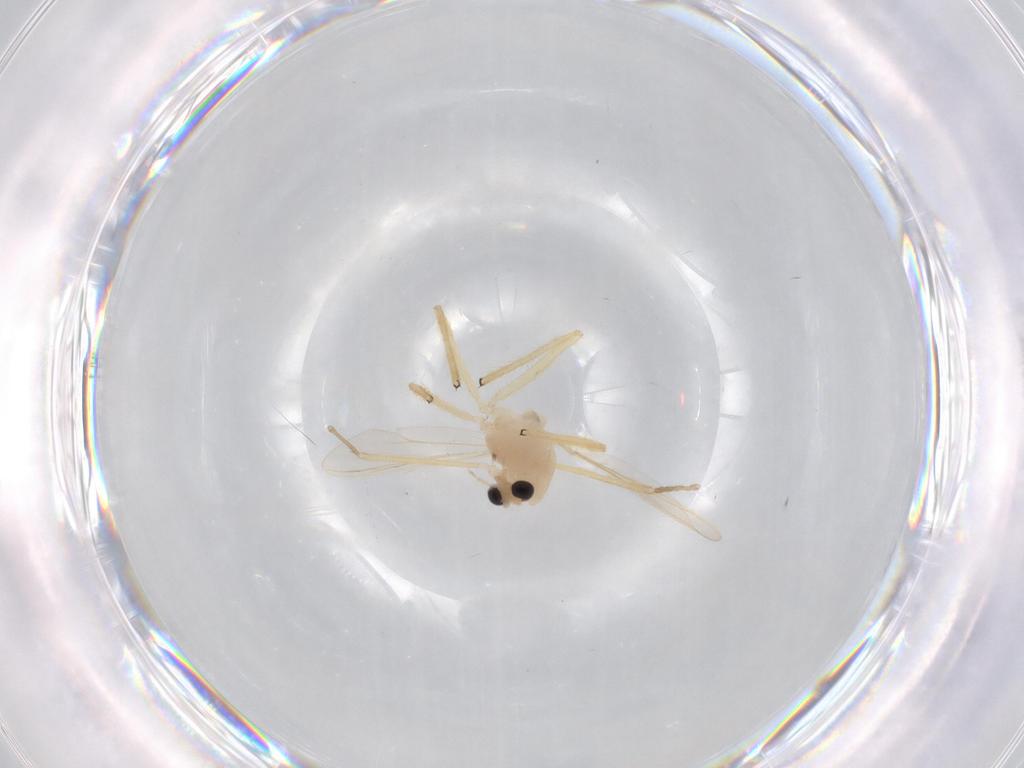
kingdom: Animalia
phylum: Arthropoda
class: Insecta
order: Diptera
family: Chironomidae
